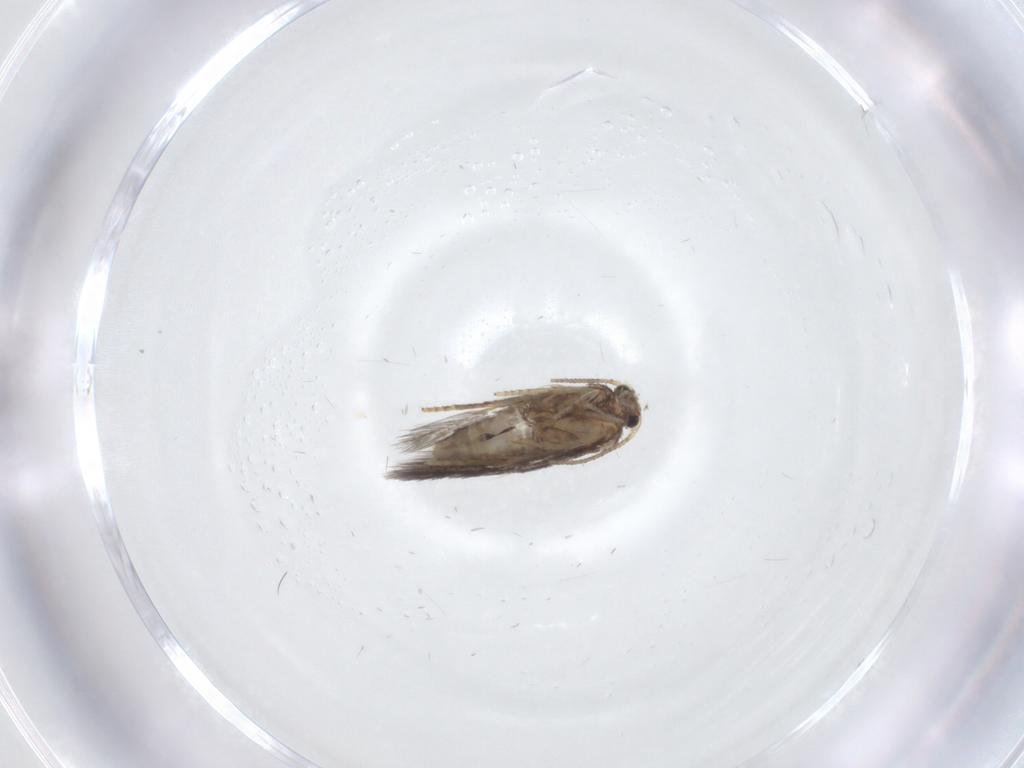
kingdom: Animalia
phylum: Arthropoda
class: Insecta
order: Lepidoptera
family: Nepticulidae
